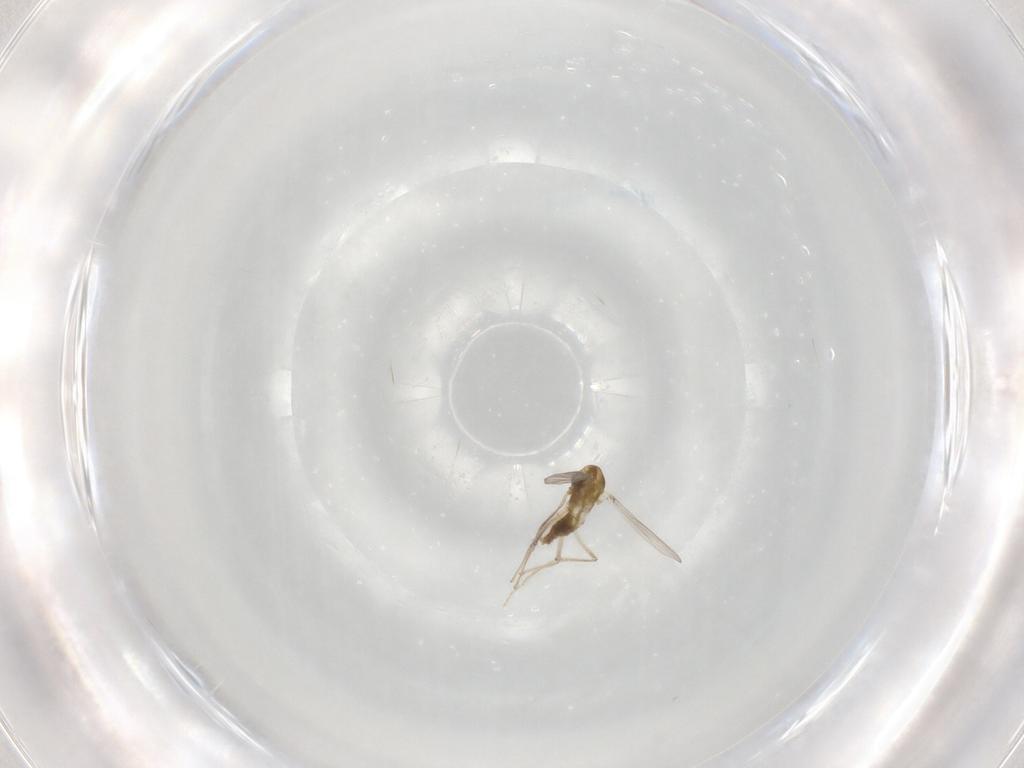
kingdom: Animalia
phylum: Arthropoda
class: Insecta
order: Diptera
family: Chironomidae
